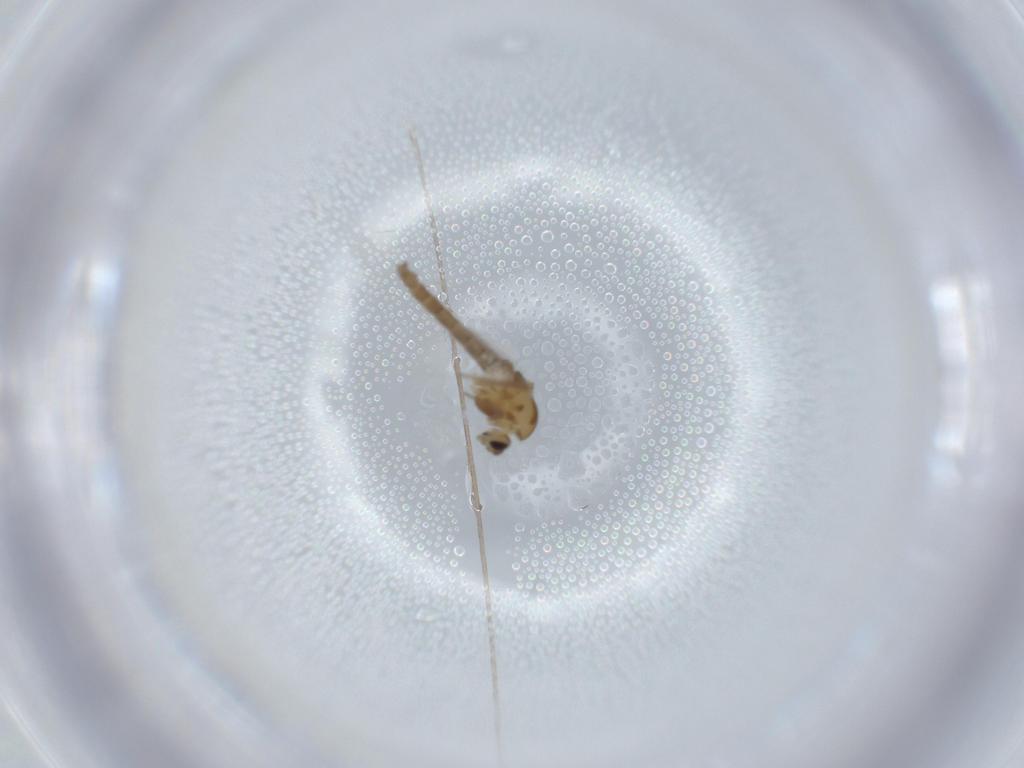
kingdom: Animalia
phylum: Arthropoda
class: Insecta
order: Diptera
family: Chironomidae
